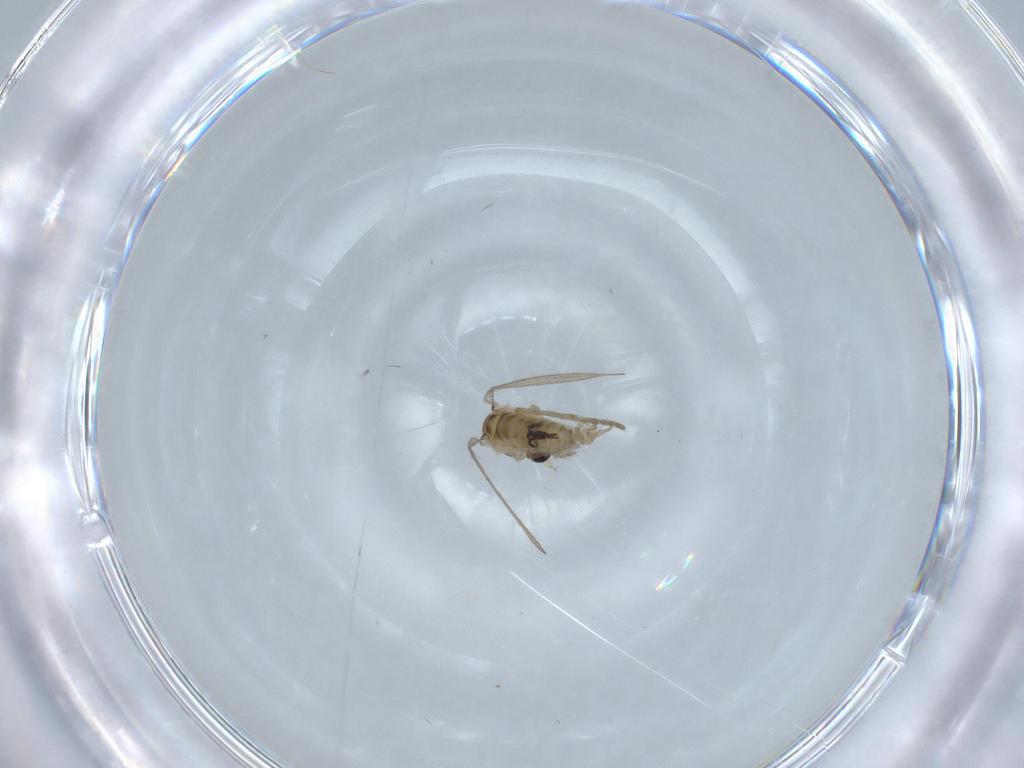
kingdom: Animalia
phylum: Arthropoda
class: Insecta
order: Diptera
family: Psychodidae
